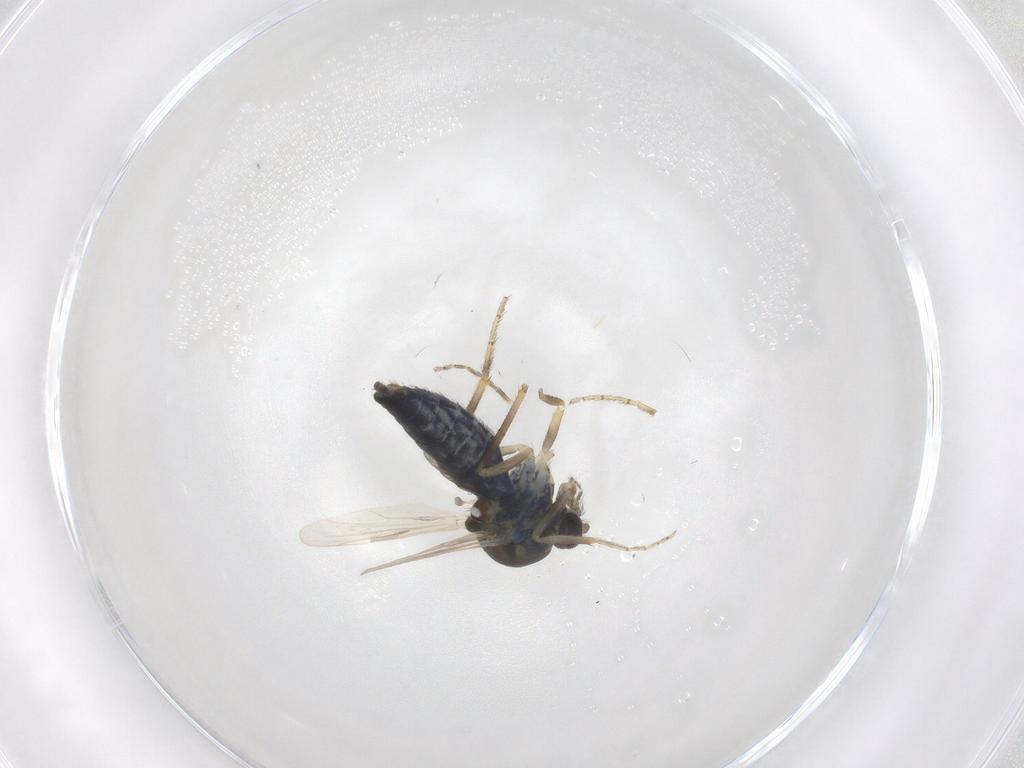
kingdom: Animalia
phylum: Arthropoda
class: Insecta
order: Diptera
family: Ceratopogonidae
